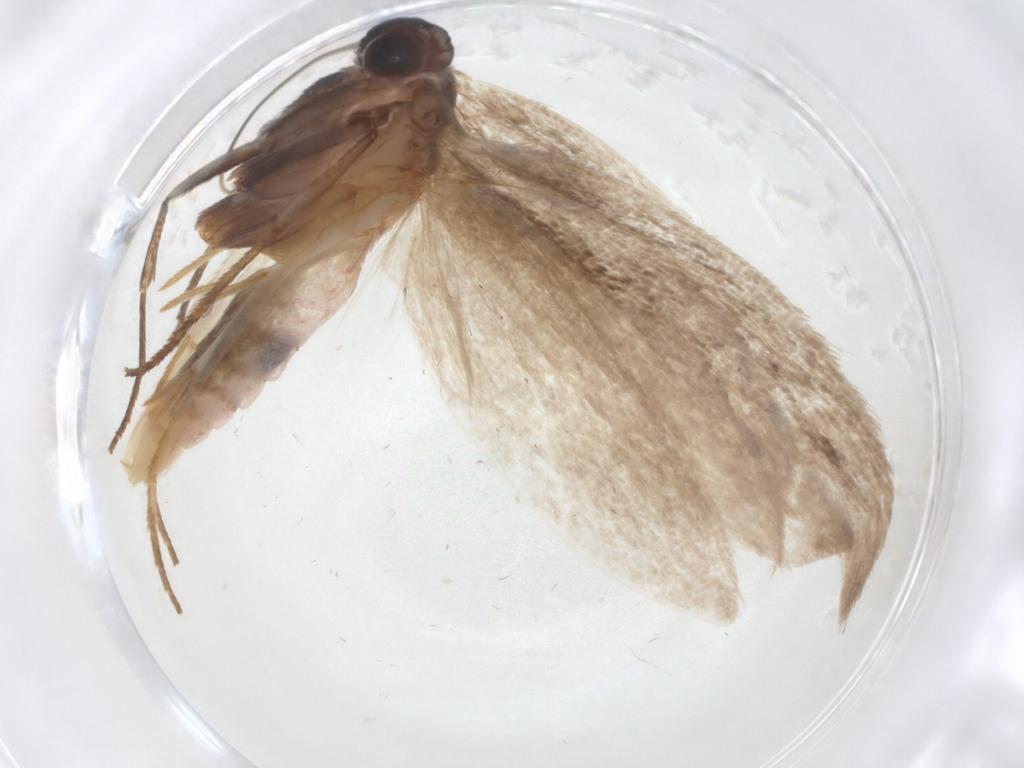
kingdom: Animalia
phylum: Arthropoda
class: Insecta
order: Lepidoptera
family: Roeslerstammiidae
